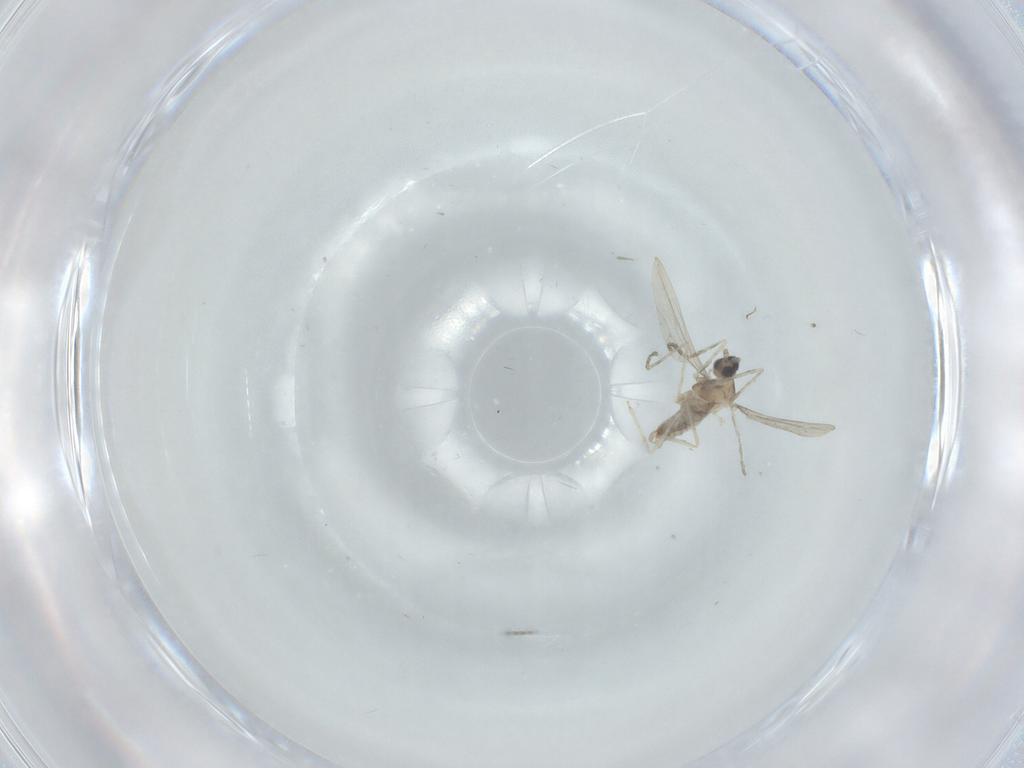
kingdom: Animalia
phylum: Arthropoda
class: Insecta
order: Diptera
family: Cecidomyiidae
